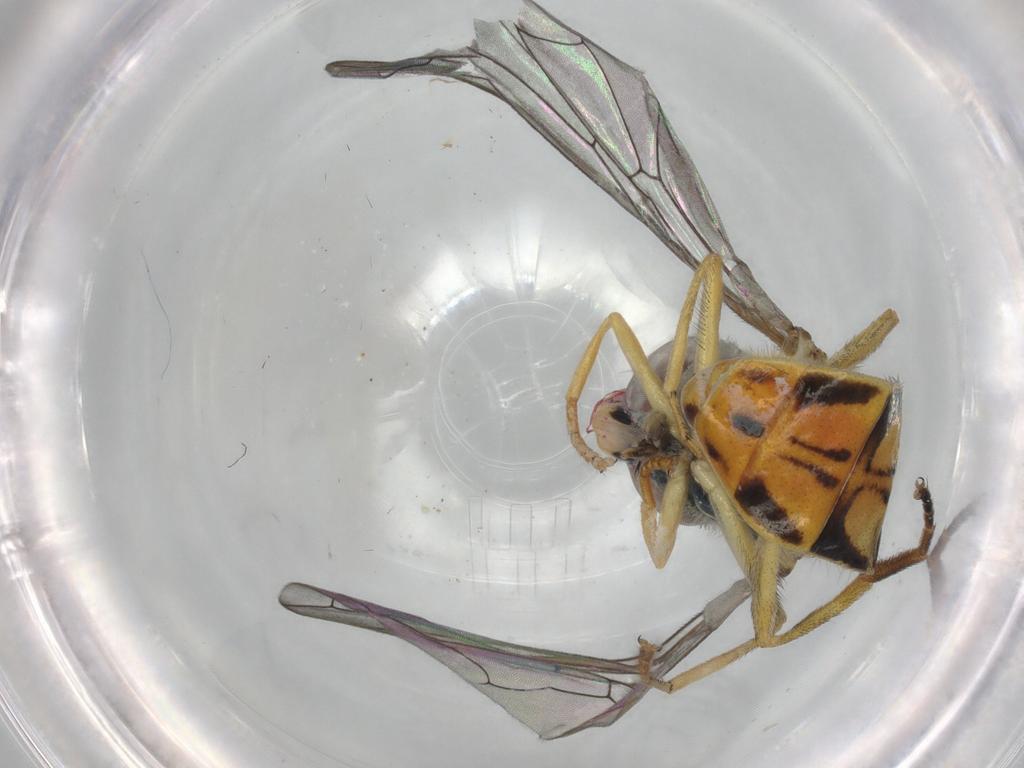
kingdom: Animalia
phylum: Arthropoda
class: Insecta
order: Diptera
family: Syrphidae
